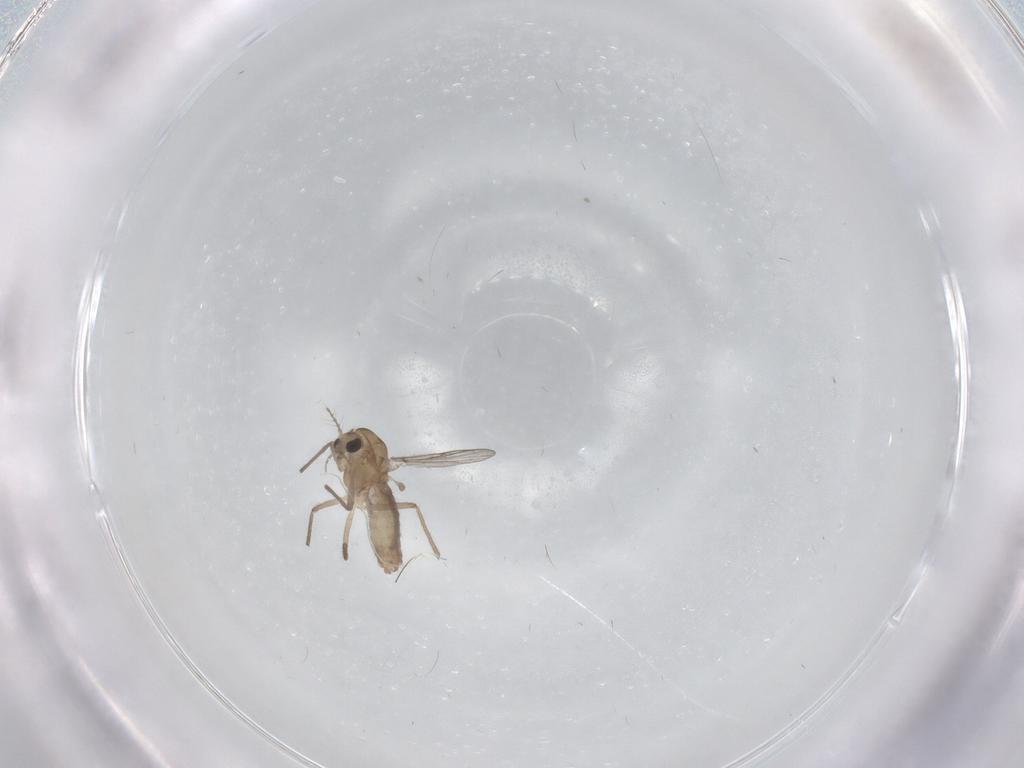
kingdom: Animalia
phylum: Arthropoda
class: Insecta
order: Diptera
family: Chironomidae
